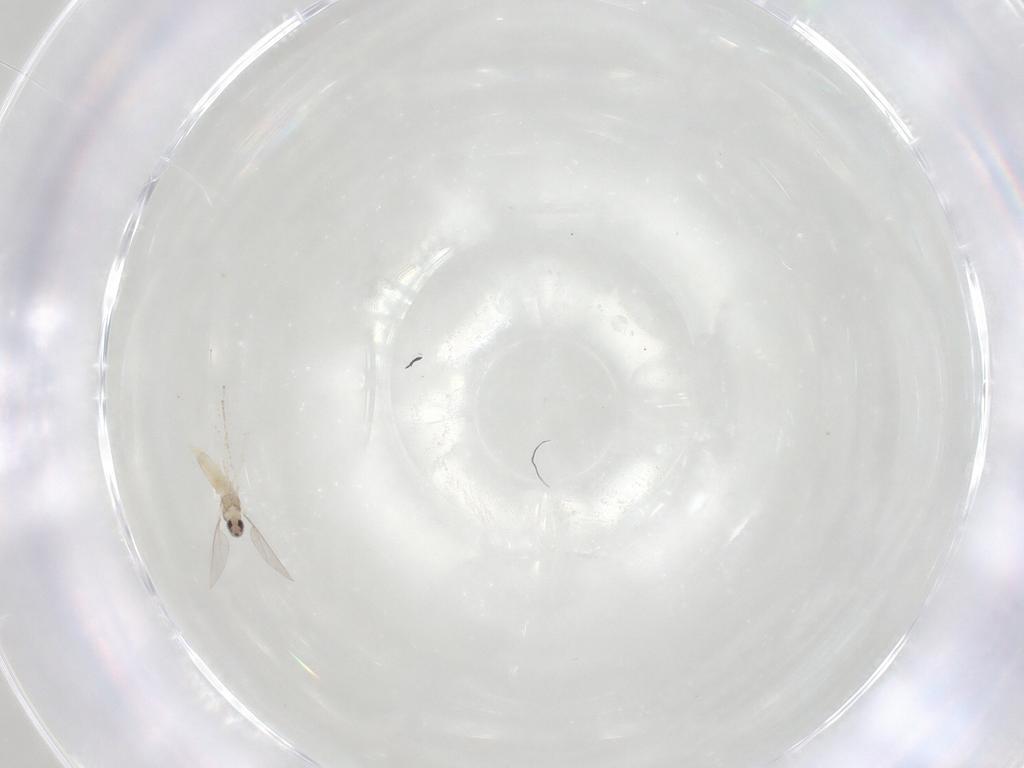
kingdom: Animalia
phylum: Arthropoda
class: Insecta
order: Diptera
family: Cecidomyiidae
